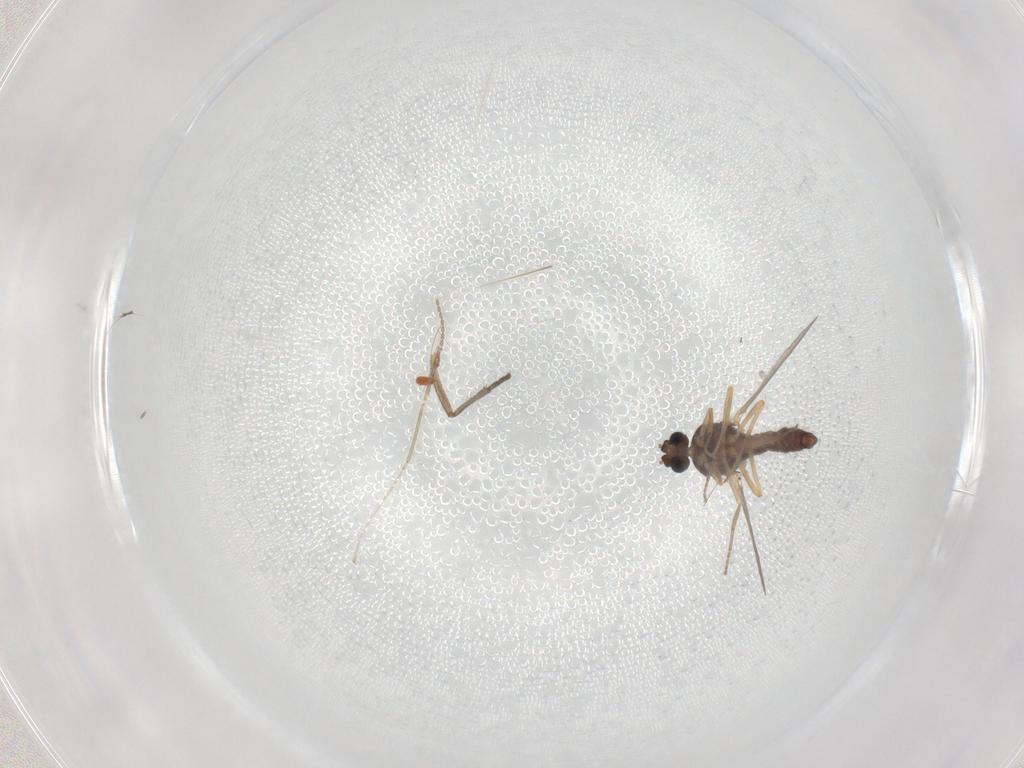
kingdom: Animalia
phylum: Arthropoda
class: Insecta
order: Diptera
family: Ceratopogonidae
